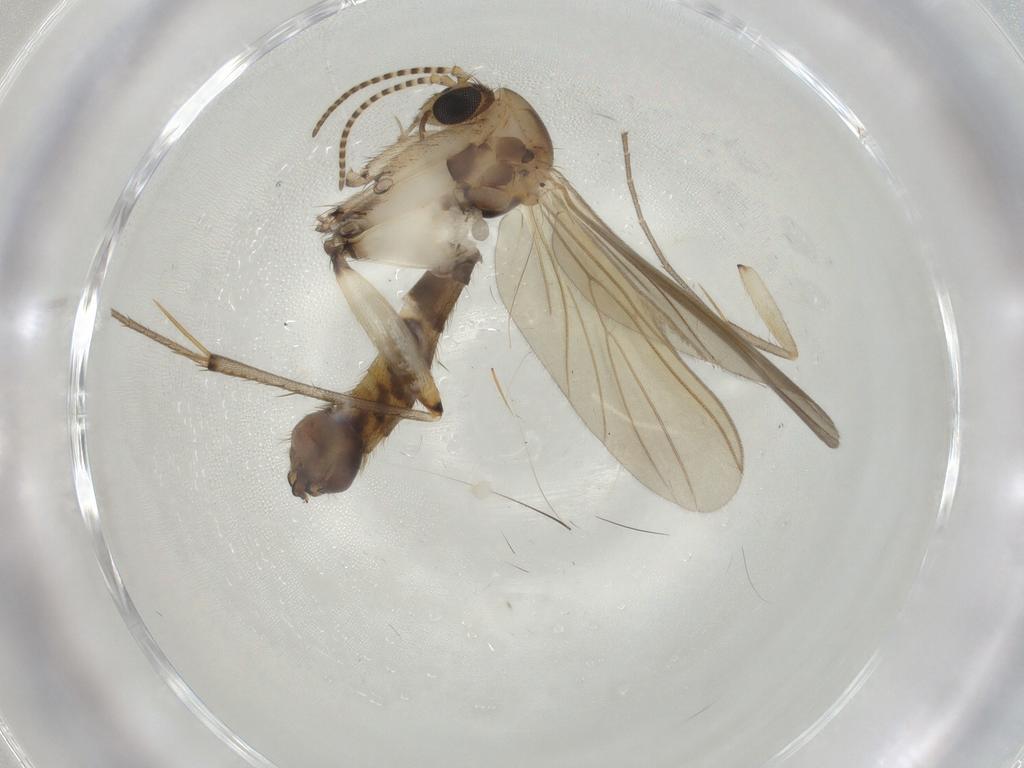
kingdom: Animalia
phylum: Arthropoda
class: Insecta
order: Diptera
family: Mycetophilidae
